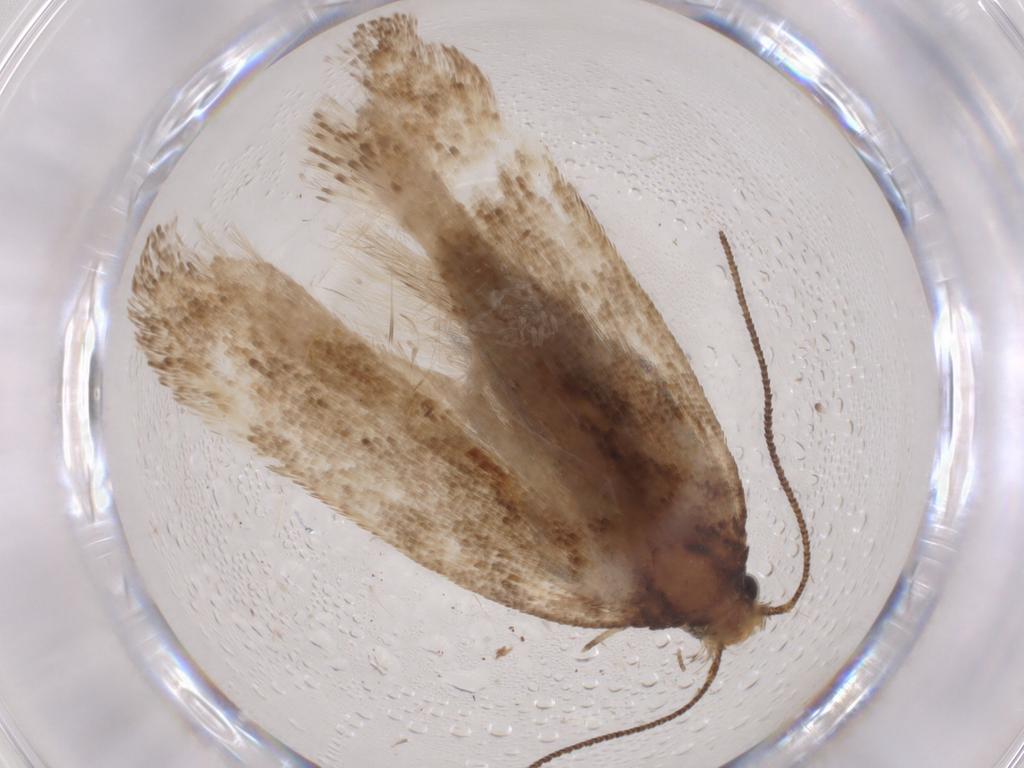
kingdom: Animalia
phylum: Arthropoda
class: Insecta
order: Lepidoptera
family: Gelechiidae
